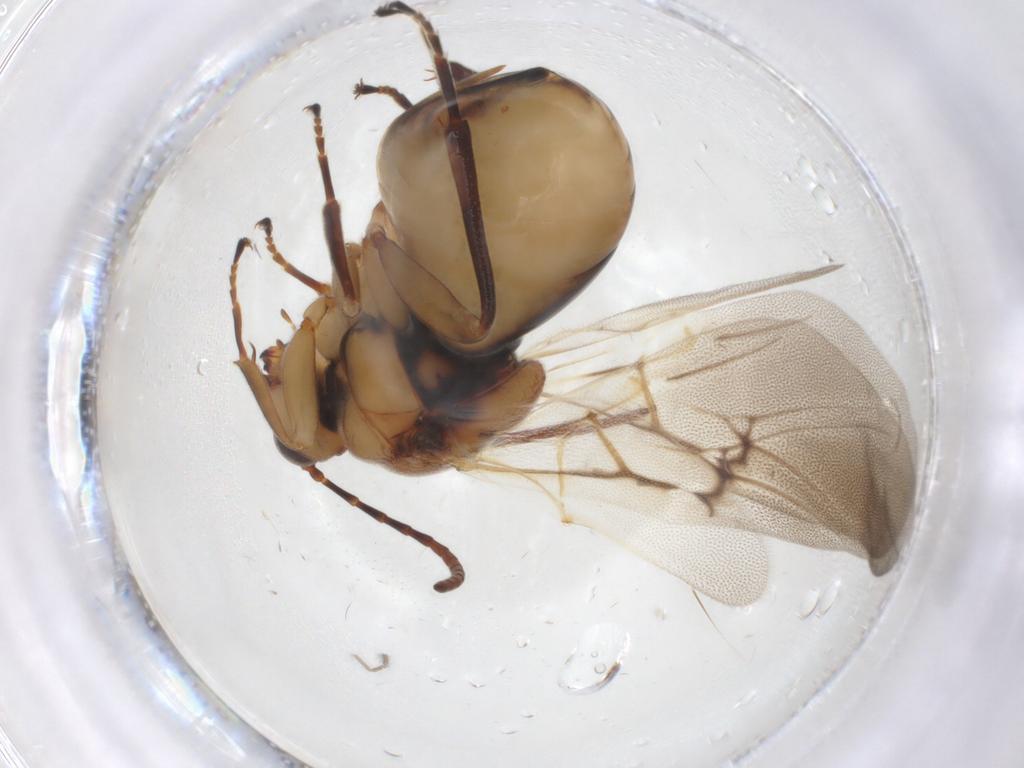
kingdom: Animalia
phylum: Arthropoda
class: Insecta
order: Hymenoptera
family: Cynipidae
